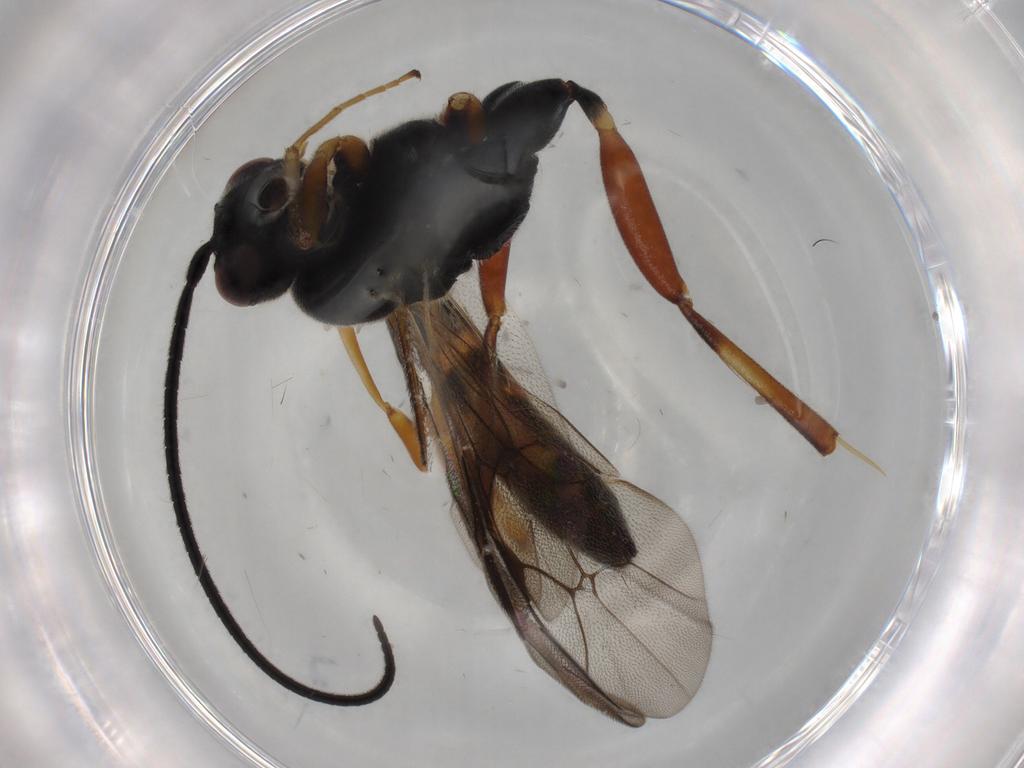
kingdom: Animalia
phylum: Arthropoda
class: Insecta
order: Hymenoptera
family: Ichneumonidae
